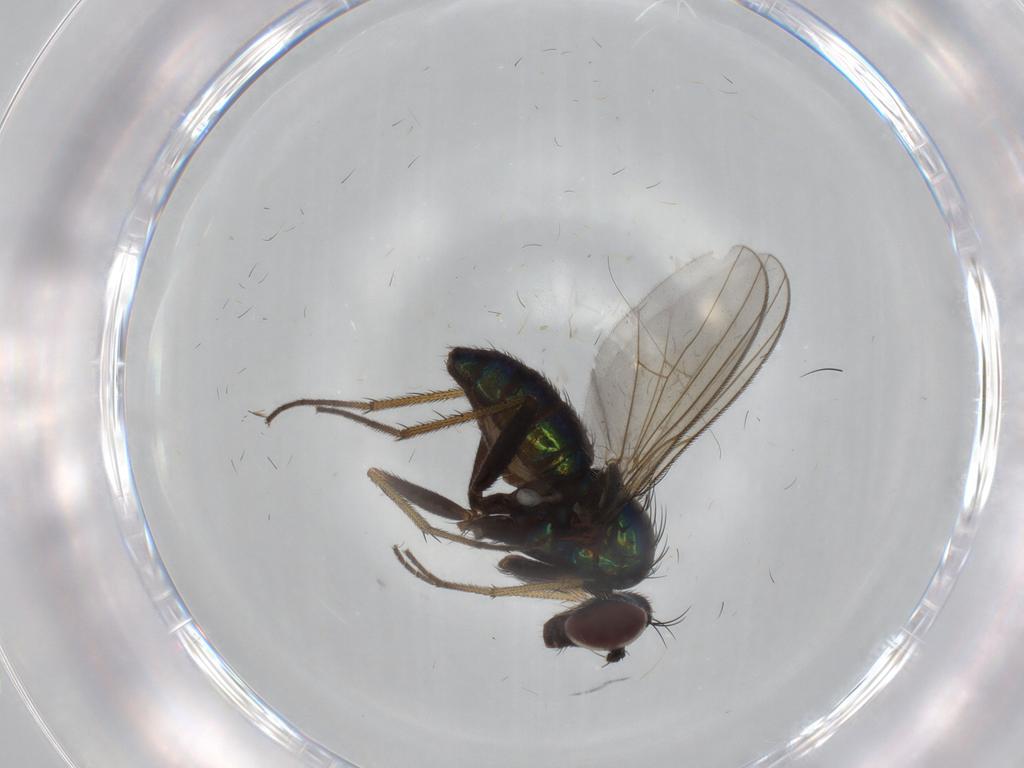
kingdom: Animalia
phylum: Arthropoda
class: Insecta
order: Diptera
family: Dolichopodidae
